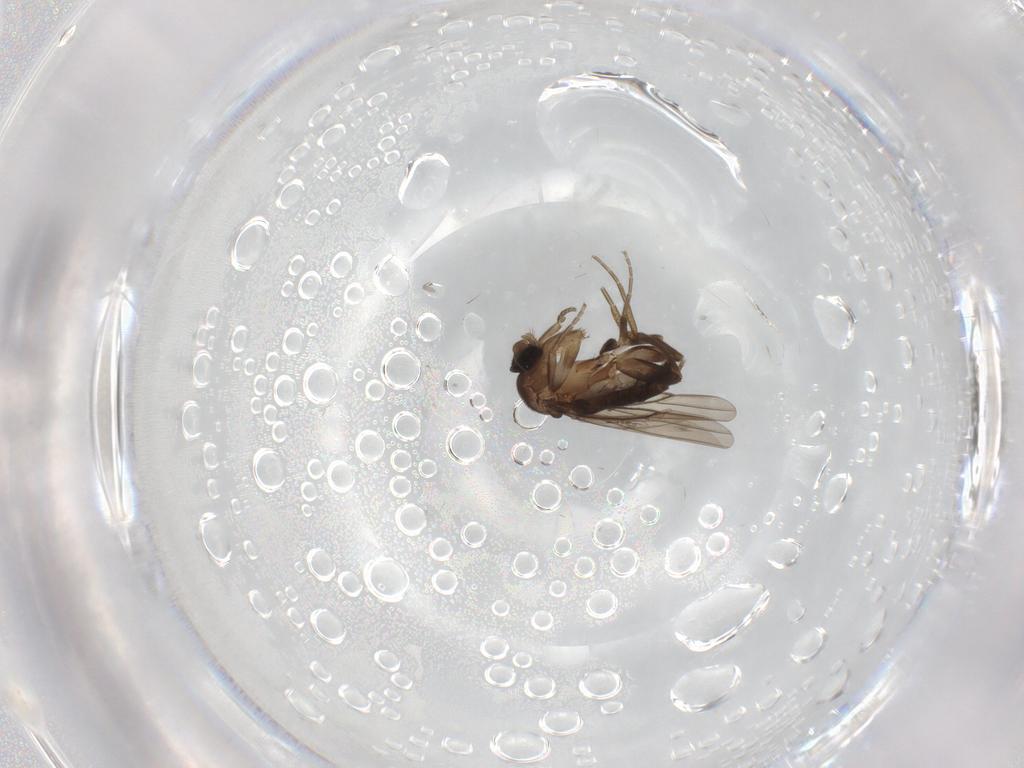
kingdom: Animalia
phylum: Arthropoda
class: Insecta
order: Diptera
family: Phoridae
